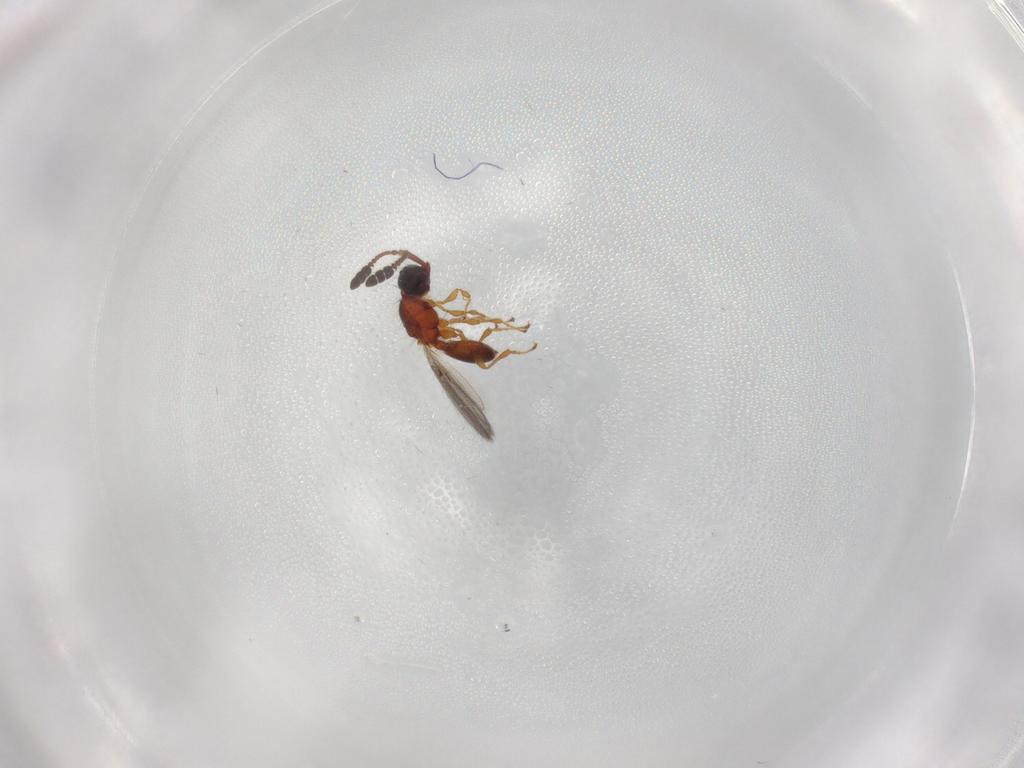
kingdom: Animalia
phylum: Arthropoda
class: Insecta
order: Hymenoptera
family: Diapriidae
